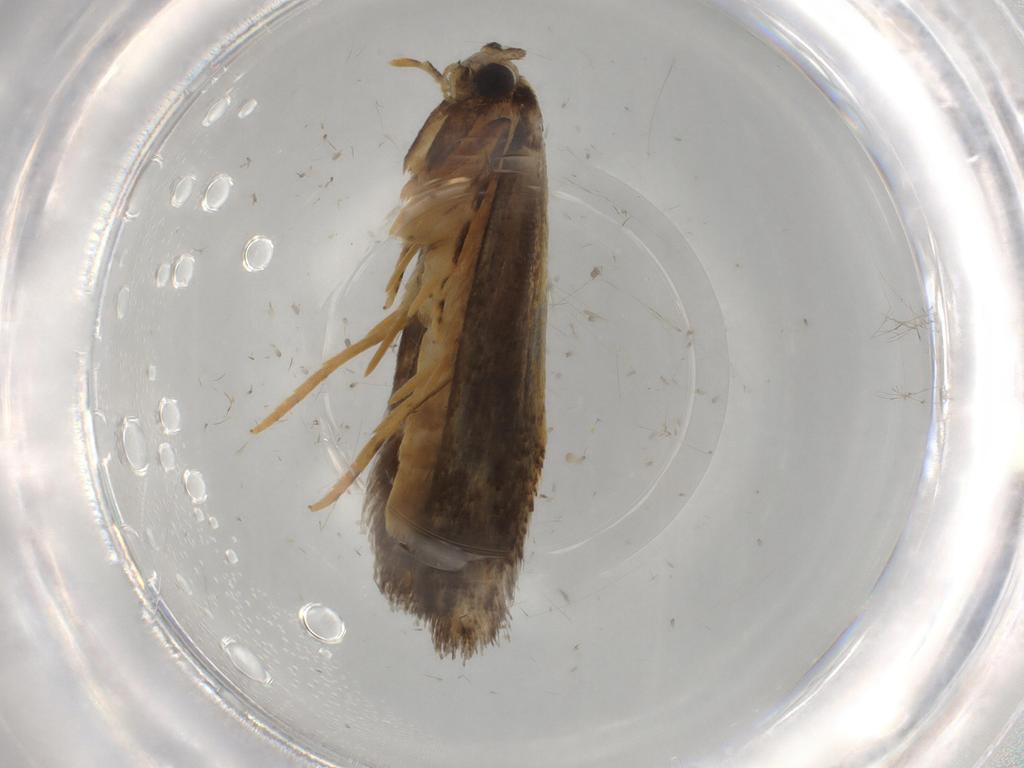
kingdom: Animalia
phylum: Arthropoda
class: Insecta
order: Lepidoptera
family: Tineidae
